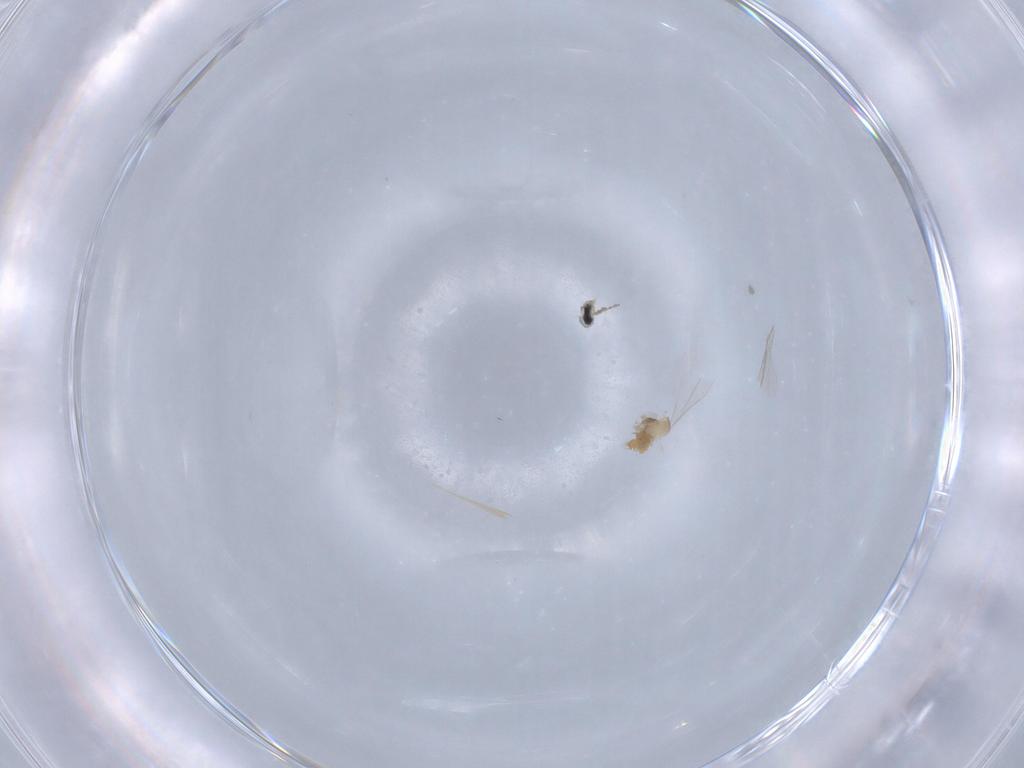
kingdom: Animalia
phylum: Arthropoda
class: Insecta
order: Diptera
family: Cecidomyiidae
